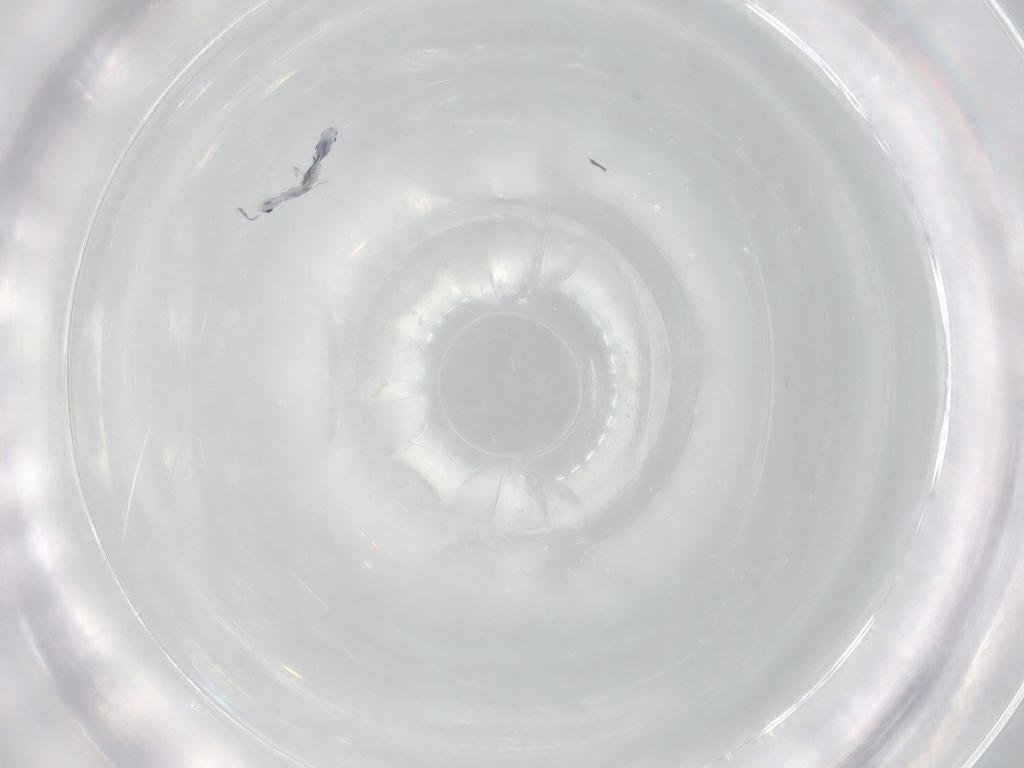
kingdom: Animalia
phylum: Arthropoda
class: Collembola
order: Entomobryomorpha
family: Entomobryidae
